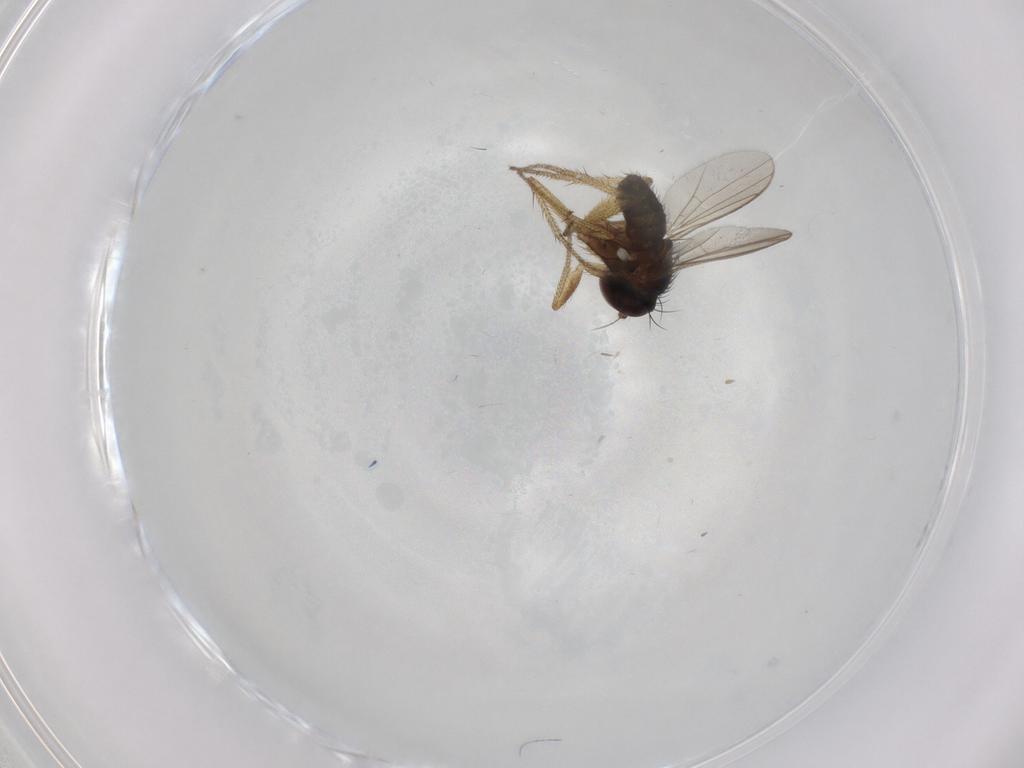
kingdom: Animalia
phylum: Arthropoda
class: Insecta
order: Diptera
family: Dolichopodidae
